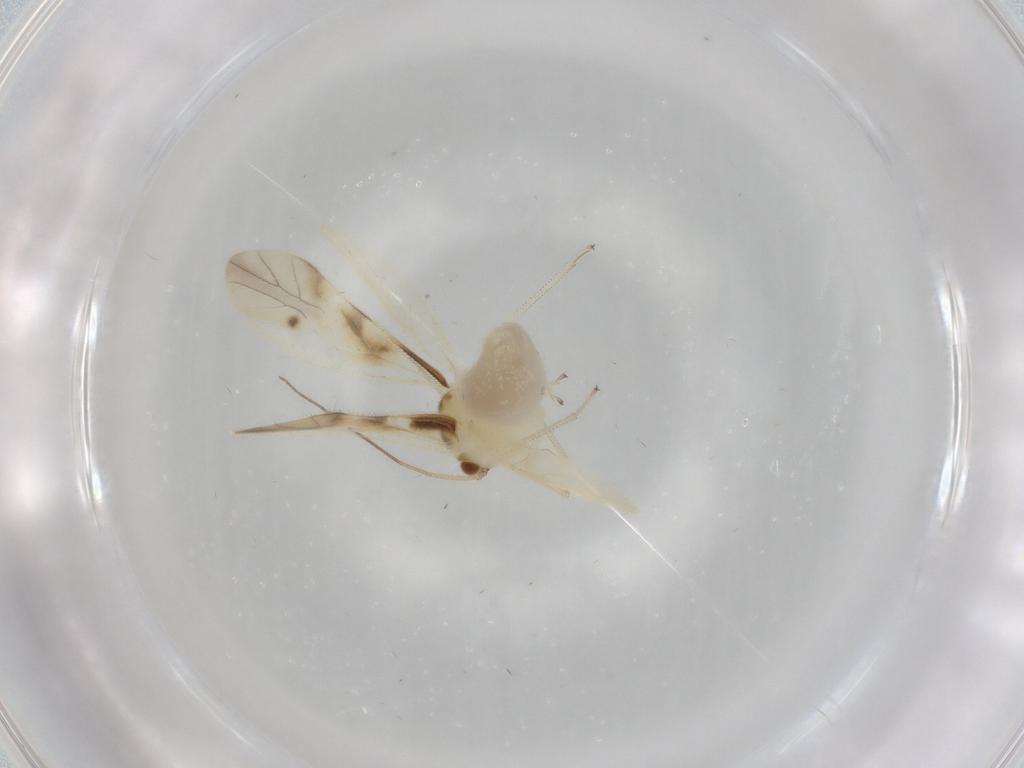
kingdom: Animalia
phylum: Arthropoda
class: Insecta
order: Psocodea
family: Caeciliusidae
